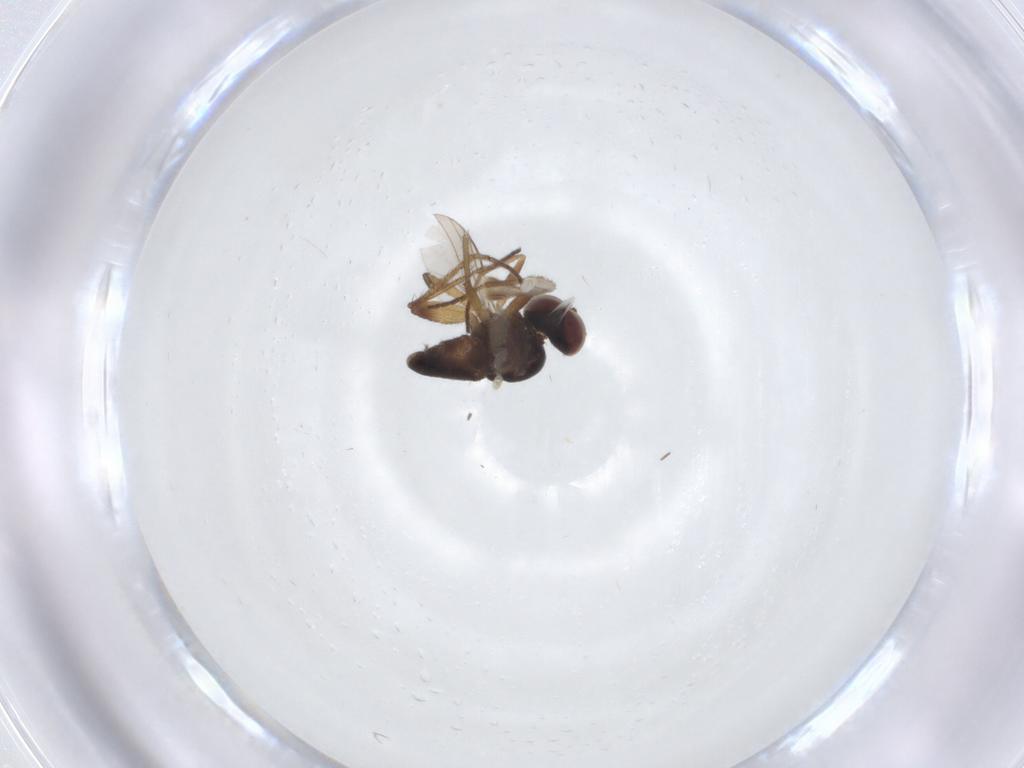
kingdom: Animalia
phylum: Arthropoda
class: Insecta
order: Diptera
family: Dolichopodidae
